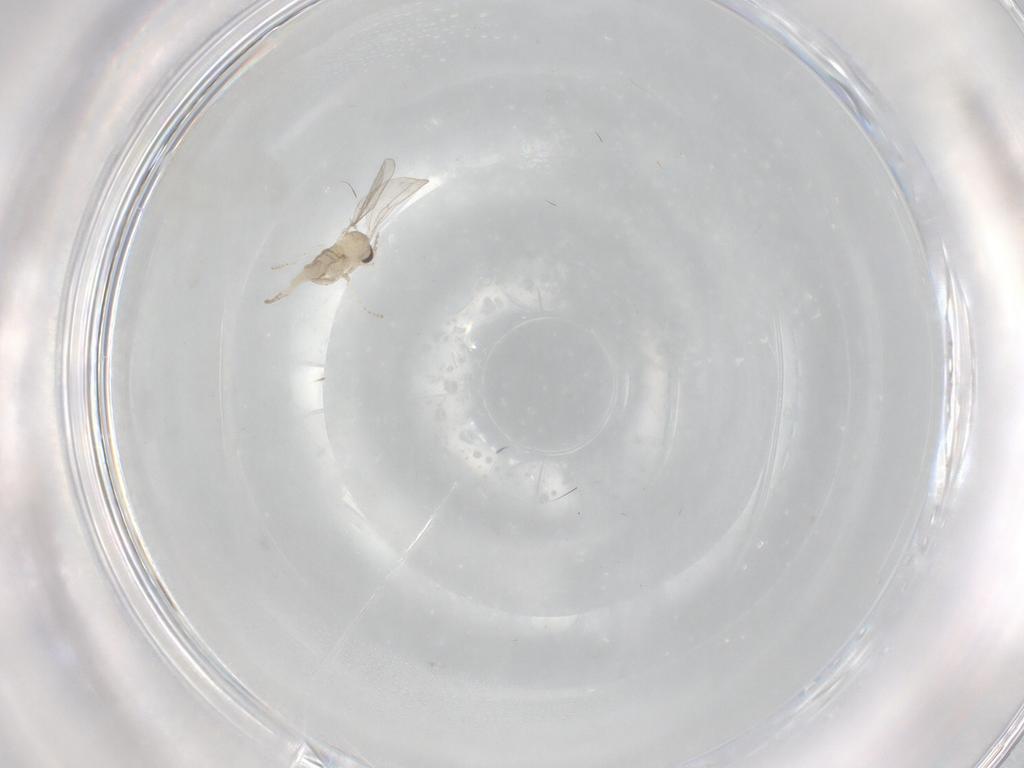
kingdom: Animalia
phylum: Arthropoda
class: Insecta
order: Diptera
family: Cecidomyiidae
